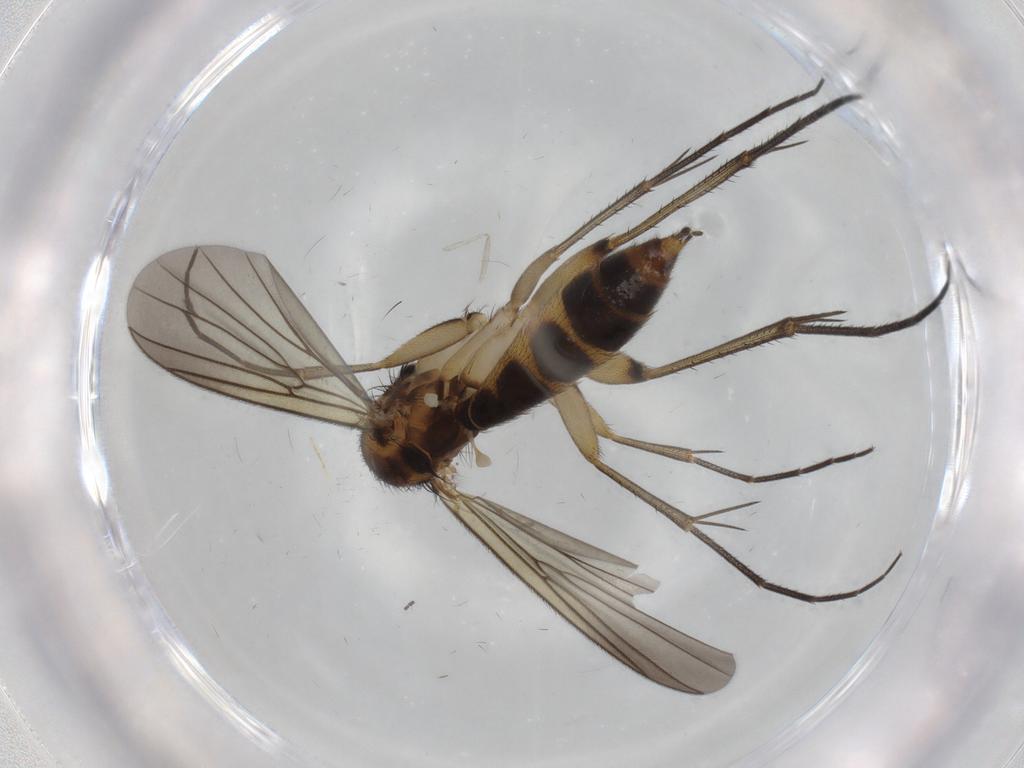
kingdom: Animalia
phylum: Arthropoda
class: Insecta
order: Diptera
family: Mycetophilidae
